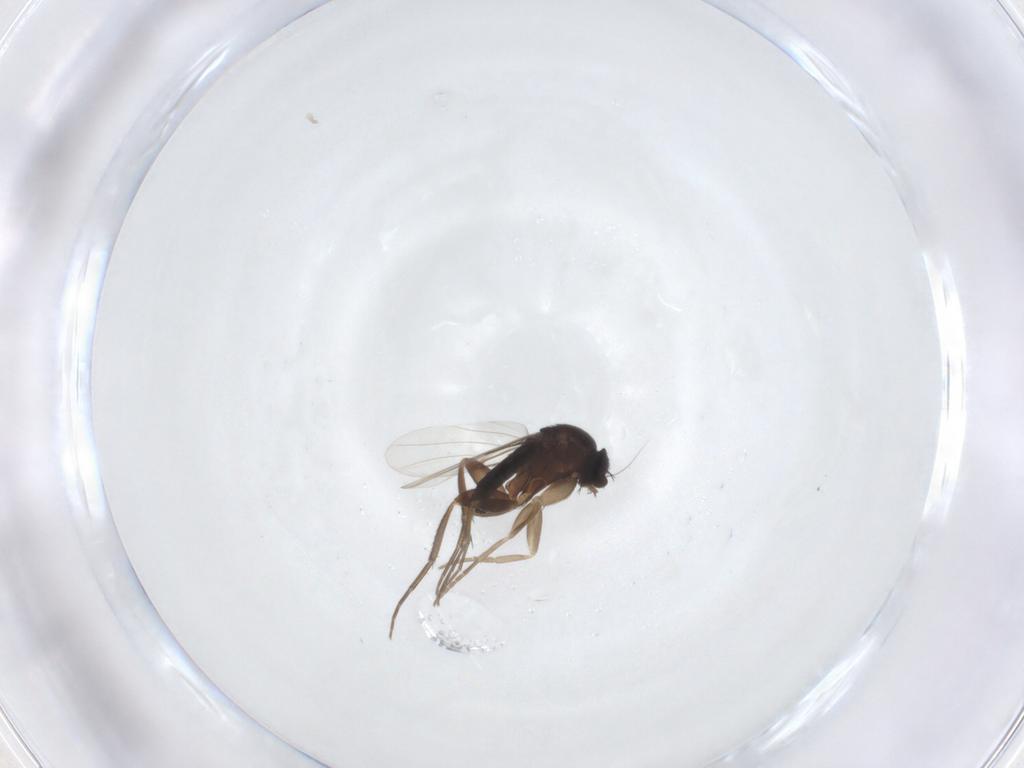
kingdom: Animalia
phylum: Arthropoda
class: Insecta
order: Diptera
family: Phoridae
